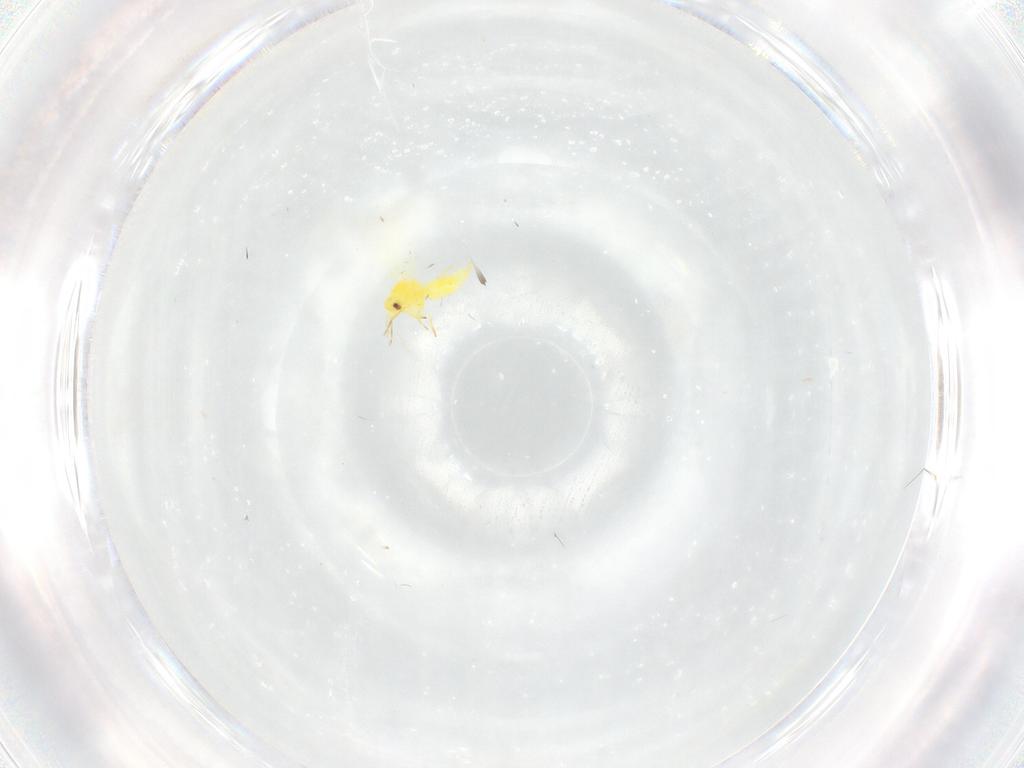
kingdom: Animalia
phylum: Arthropoda
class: Insecta
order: Hemiptera
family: Aleyrodidae
